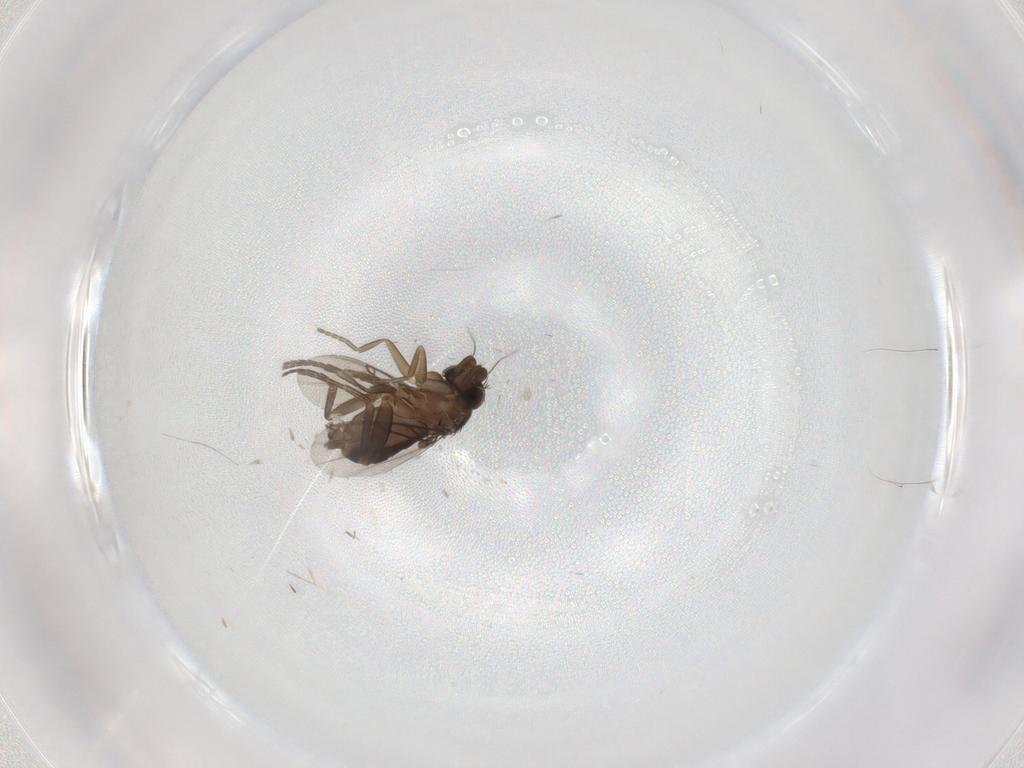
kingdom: Animalia
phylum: Arthropoda
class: Insecta
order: Diptera
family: Phoridae
